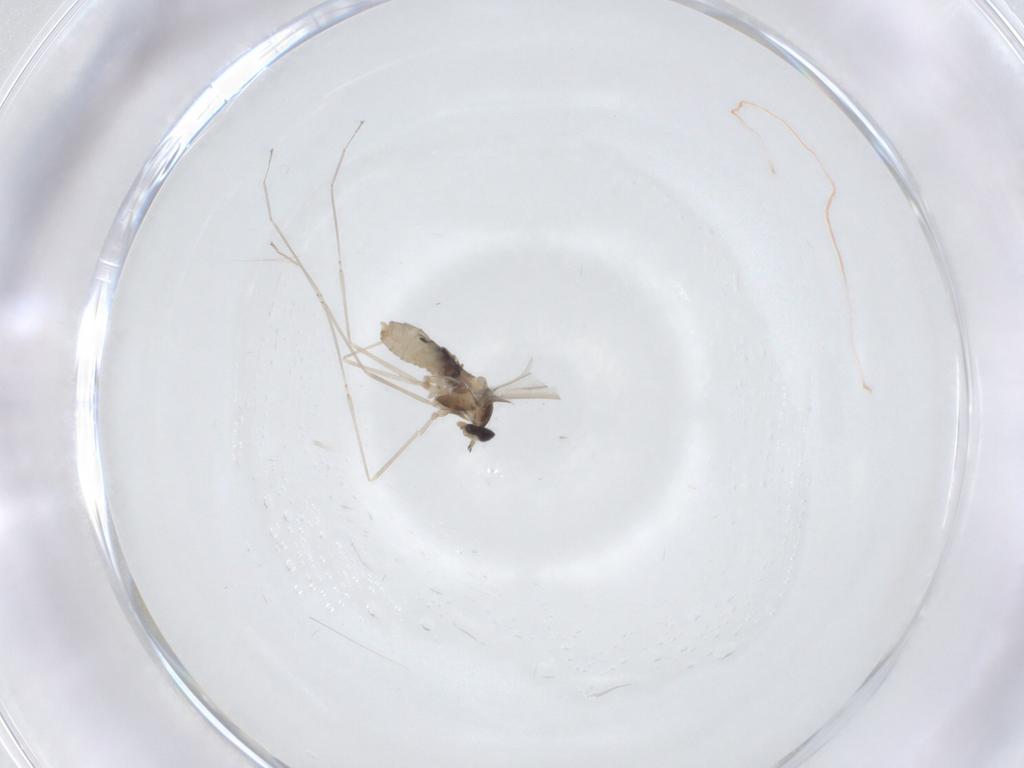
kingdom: Animalia
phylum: Arthropoda
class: Insecta
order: Diptera
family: Cecidomyiidae
